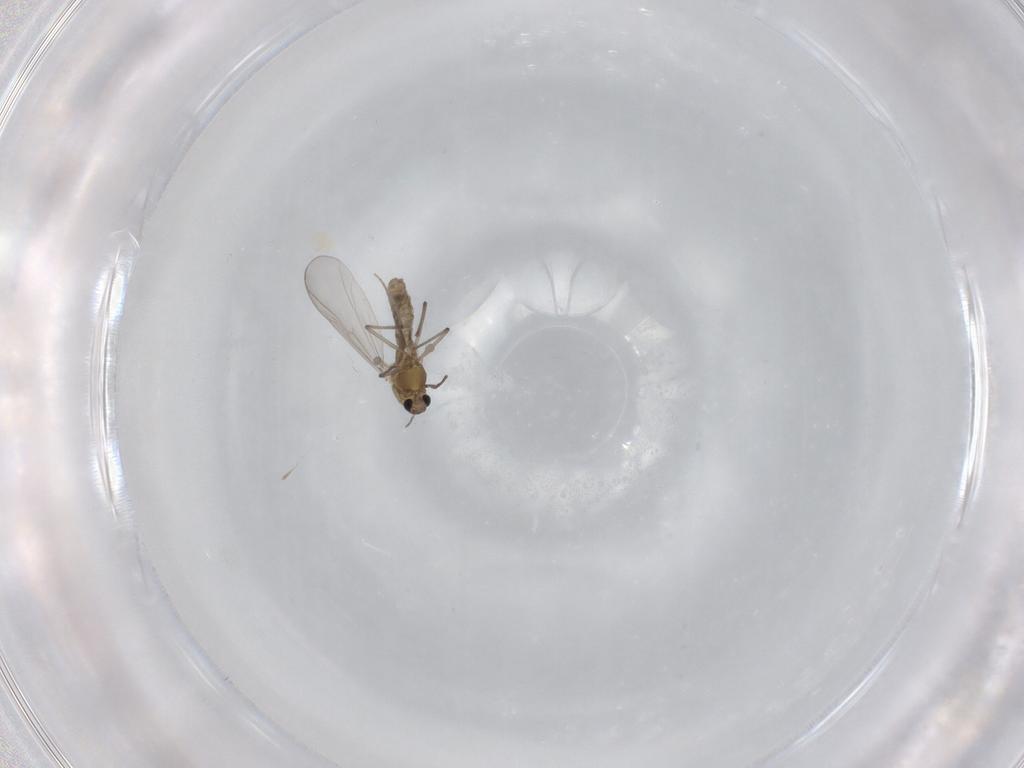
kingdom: Animalia
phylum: Arthropoda
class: Insecta
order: Diptera
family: Chironomidae
